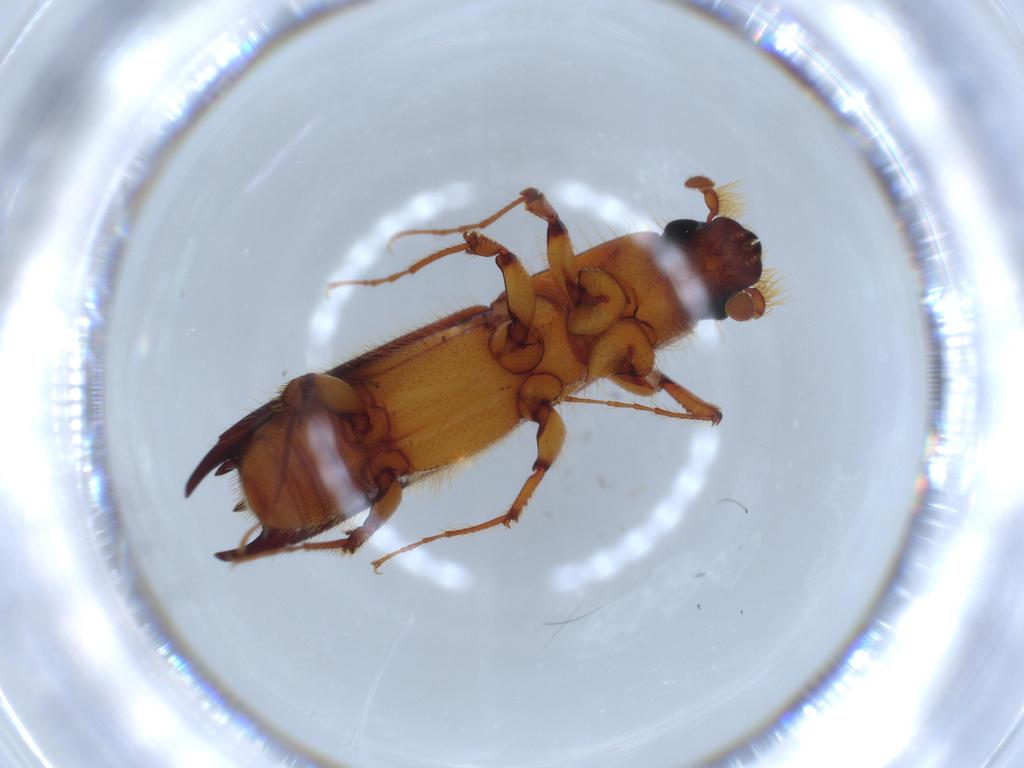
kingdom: Animalia
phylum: Arthropoda
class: Insecta
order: Coleoptera
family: Curculionidae
